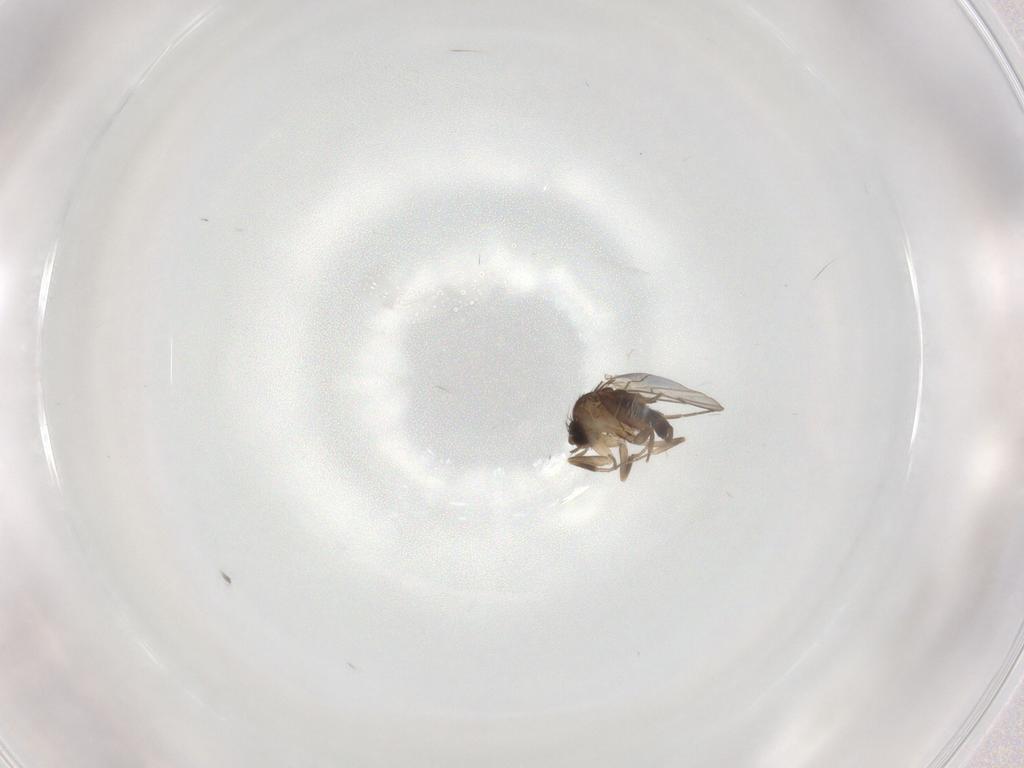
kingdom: Animalia
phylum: Arthropoda
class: Insecta
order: Diptera
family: Phoridae
